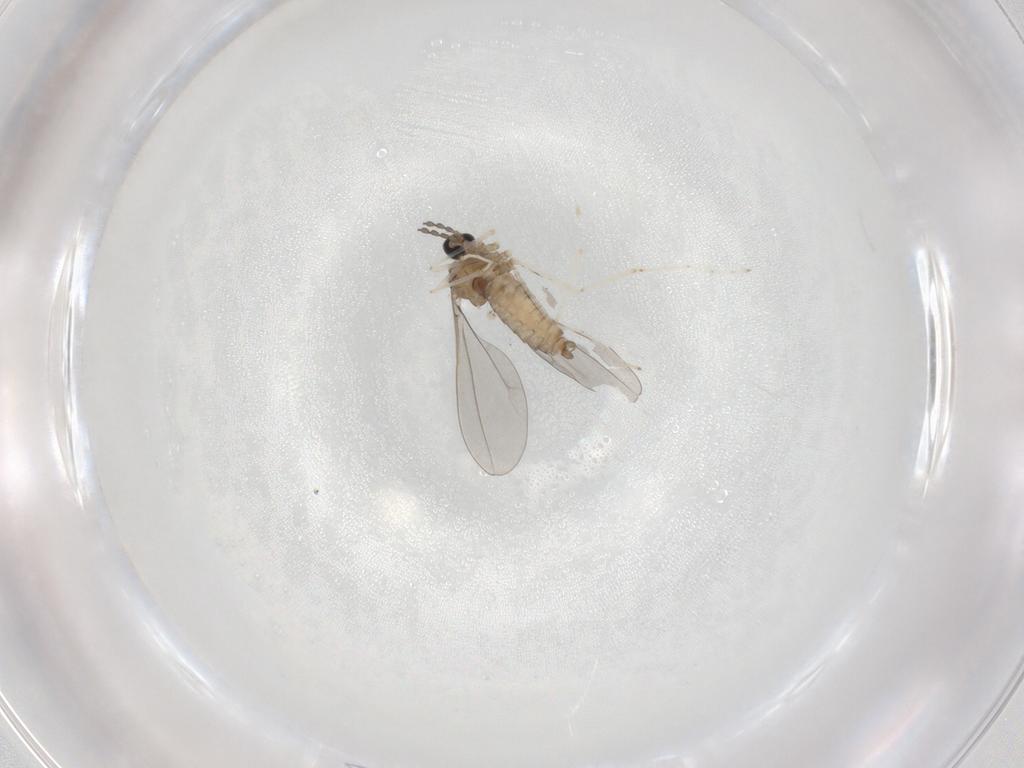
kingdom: Animalia
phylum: Arthropoda
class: Insecta
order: Diptera
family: Cecidomyiidae
